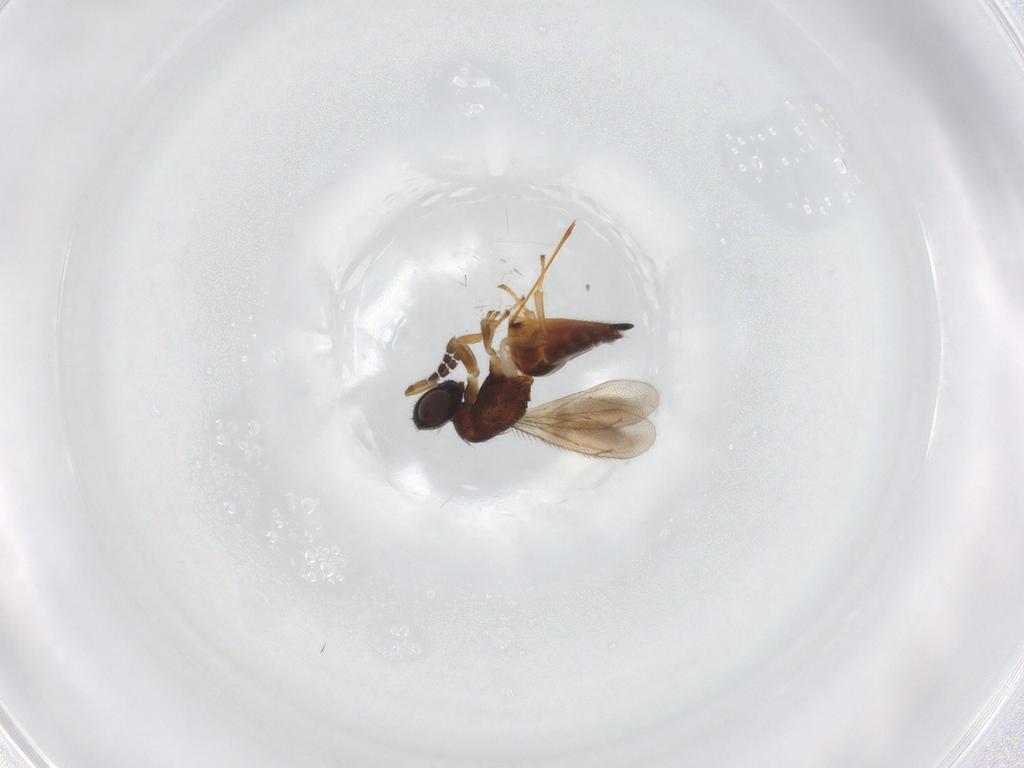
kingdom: Animalia
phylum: Arthropoda
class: Insecta
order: Hymenoptera
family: Eulophidae
